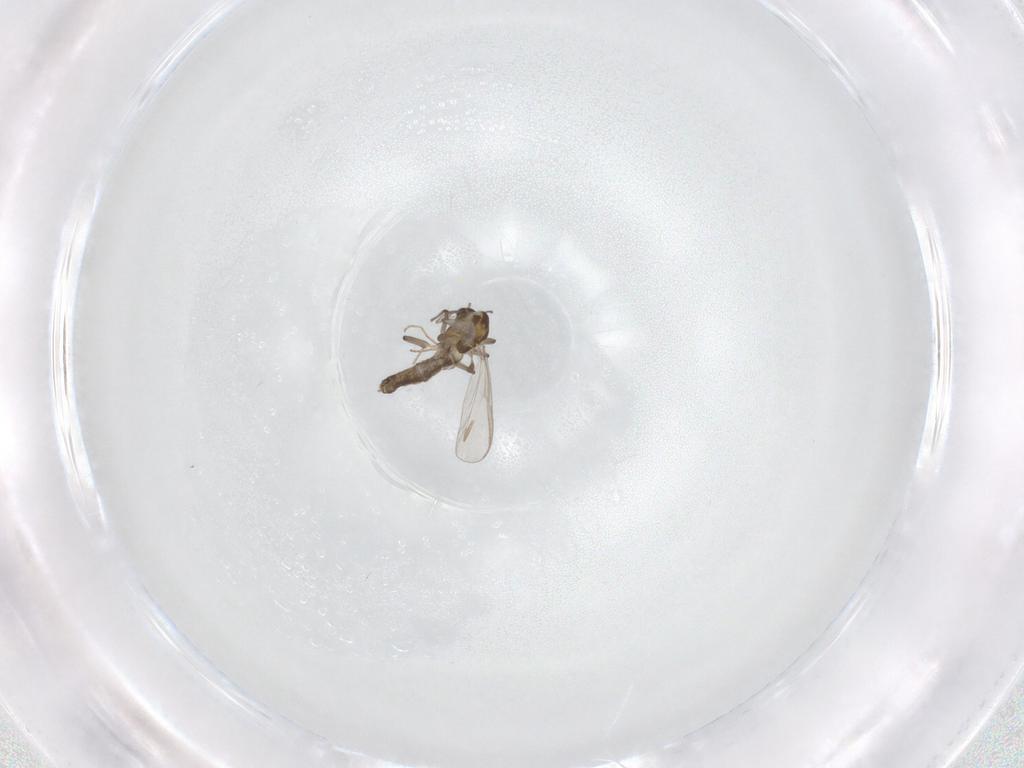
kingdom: Animalia
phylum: Arthropoda
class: Insecta
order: Diptera
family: Chironomidae
